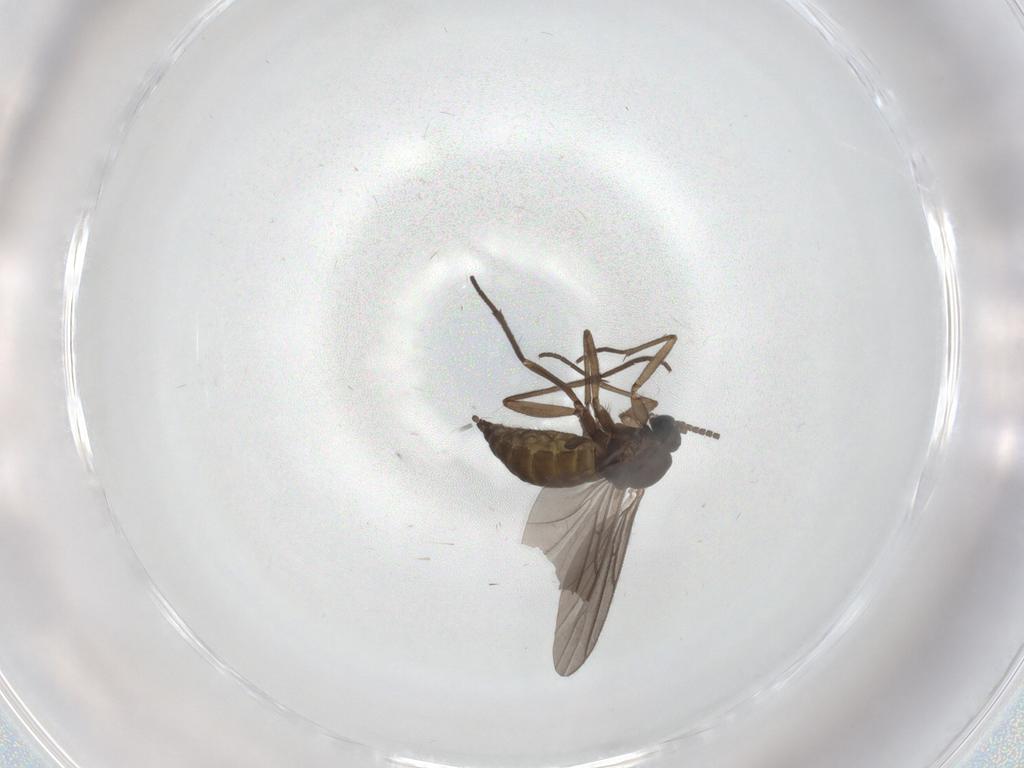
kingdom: Animalia
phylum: Arthropoda
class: Insecta
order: Diptera
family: Sciaridae
